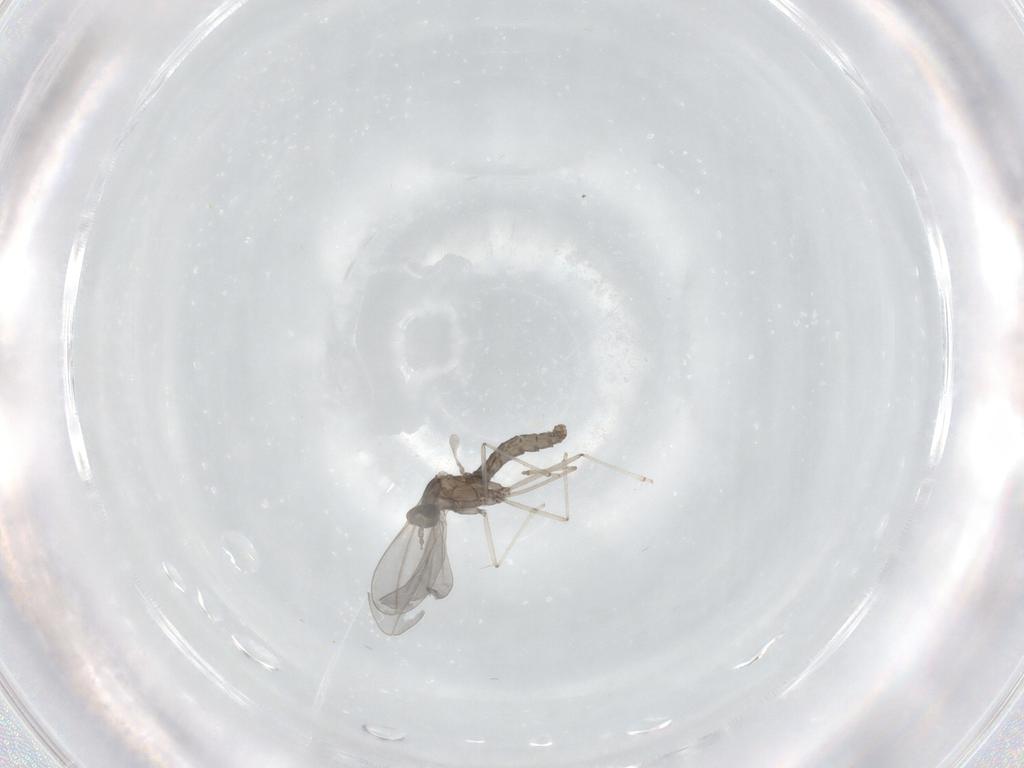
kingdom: Animalia
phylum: Arthropoda
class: Insecta
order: Diptera
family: Cecidomyiidae
